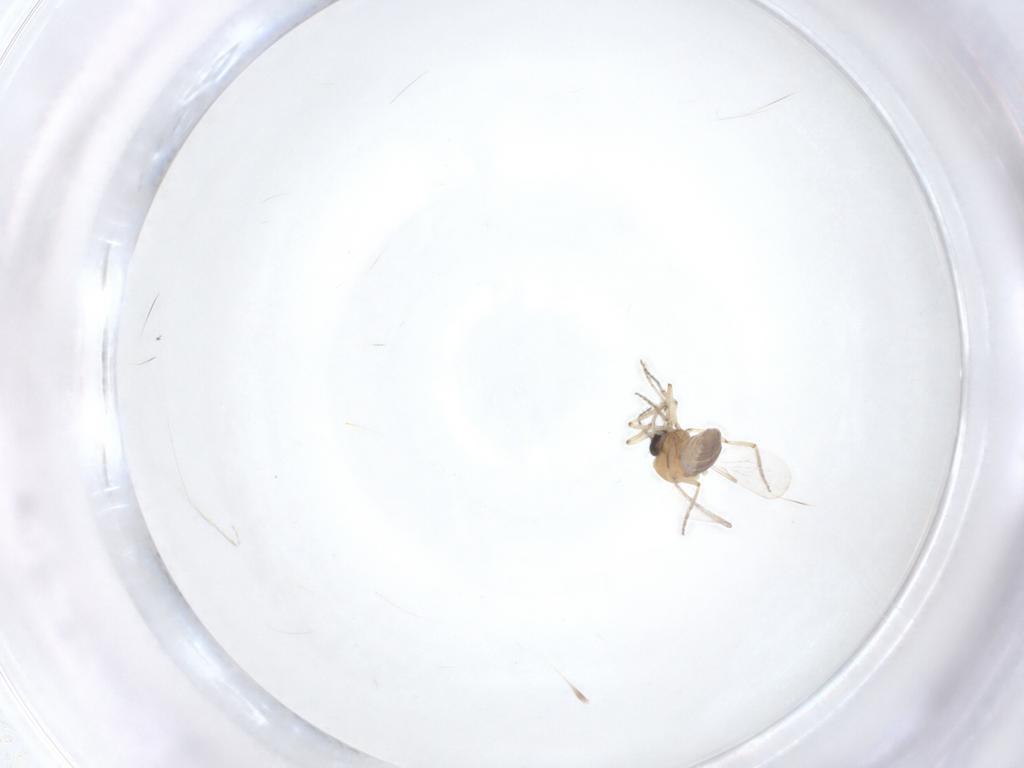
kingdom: Animalia
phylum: Arthropoda
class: Insecta
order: Diptera
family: Ceratopogonidae
